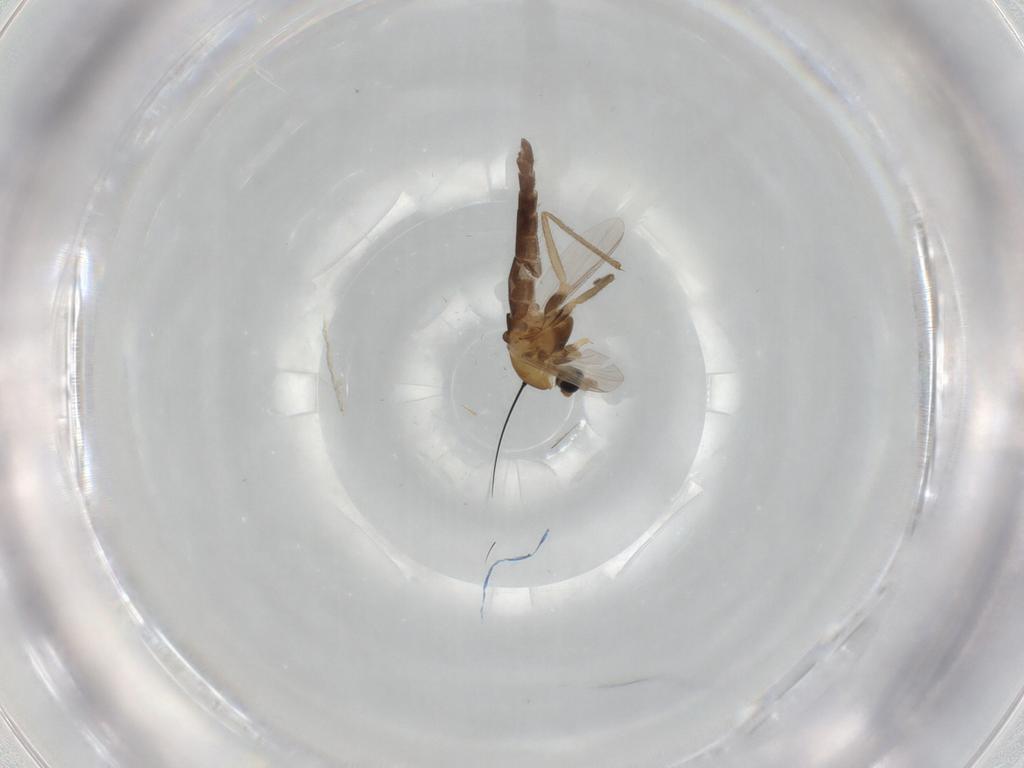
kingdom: Animalia
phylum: Arthropoda
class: Insecta
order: Diptera
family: Chironomidae
